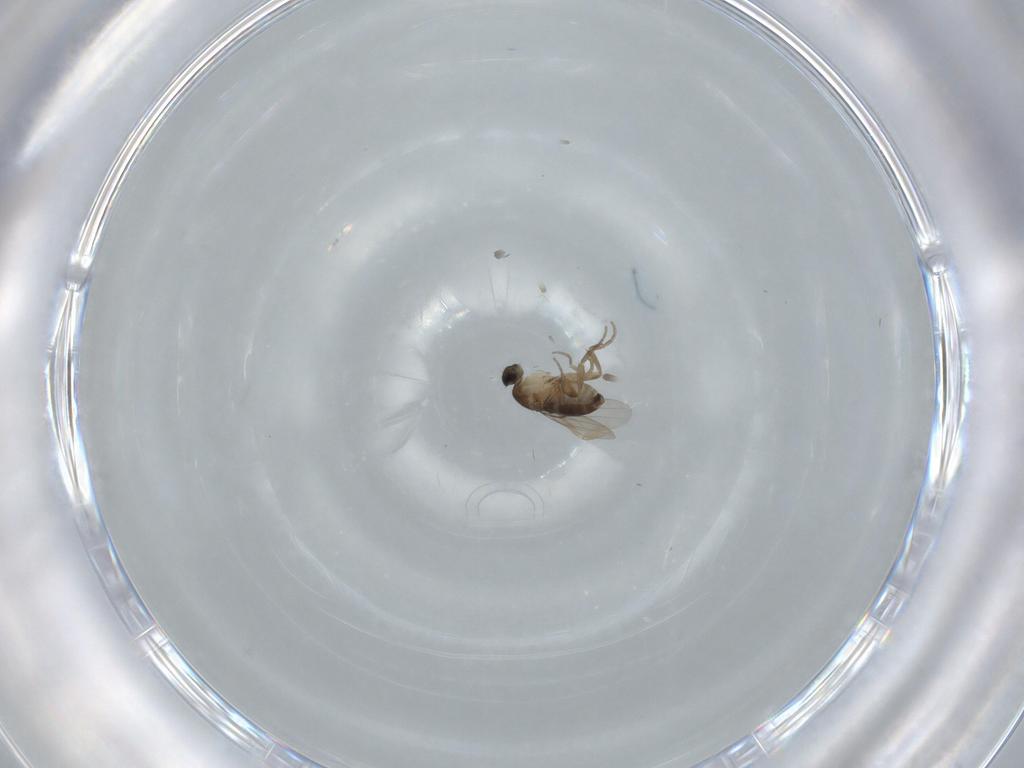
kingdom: Animalia
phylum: Arthropoda
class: Insecta
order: Diptera
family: Phoridae
